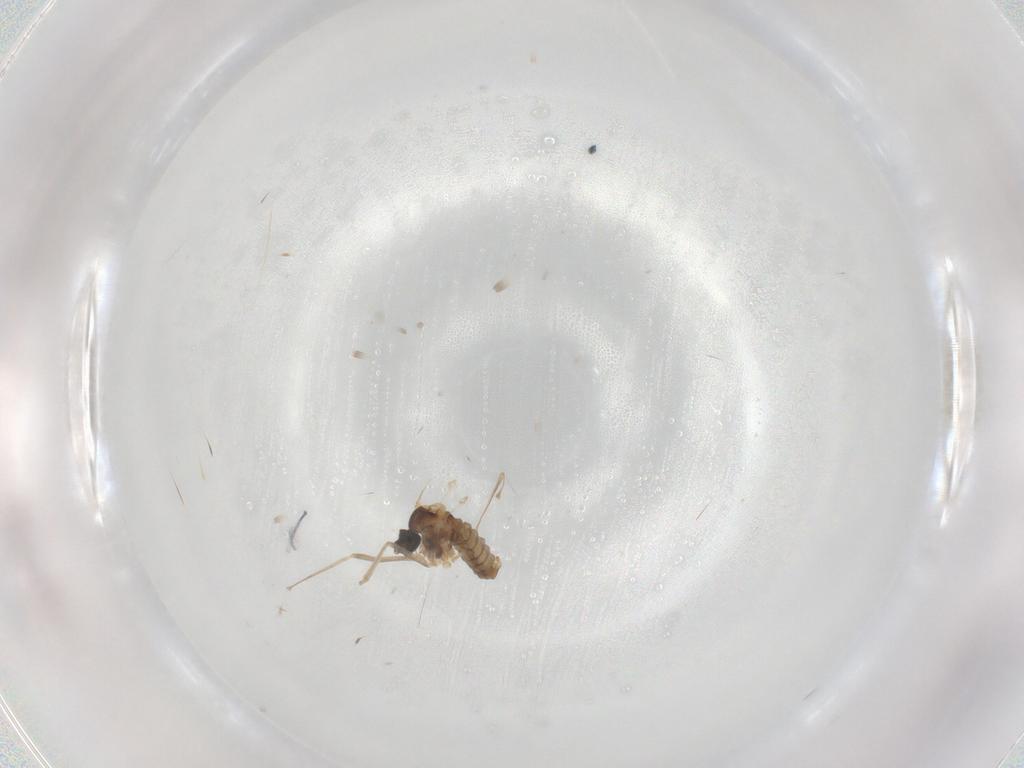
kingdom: Animalia
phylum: Arthropoda
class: Insecta
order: Diptera
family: Cecidomyiidae
